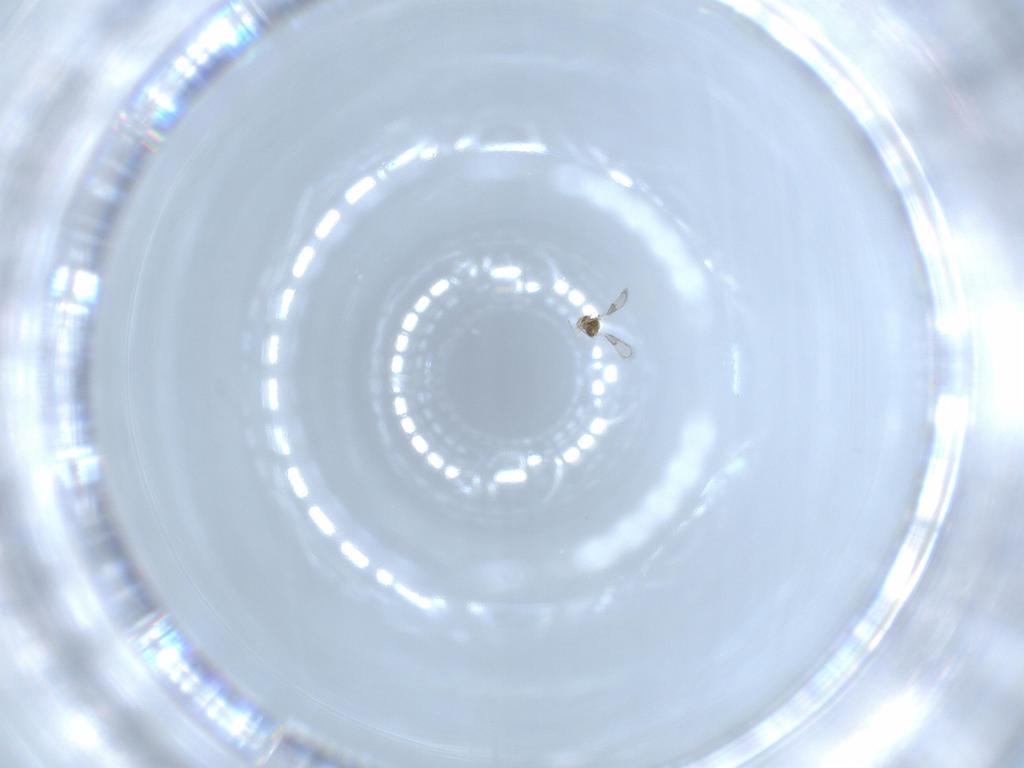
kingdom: Animalia
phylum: Arthropoda
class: Insecta
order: Hymenoptera
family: Trichogrammatidae
